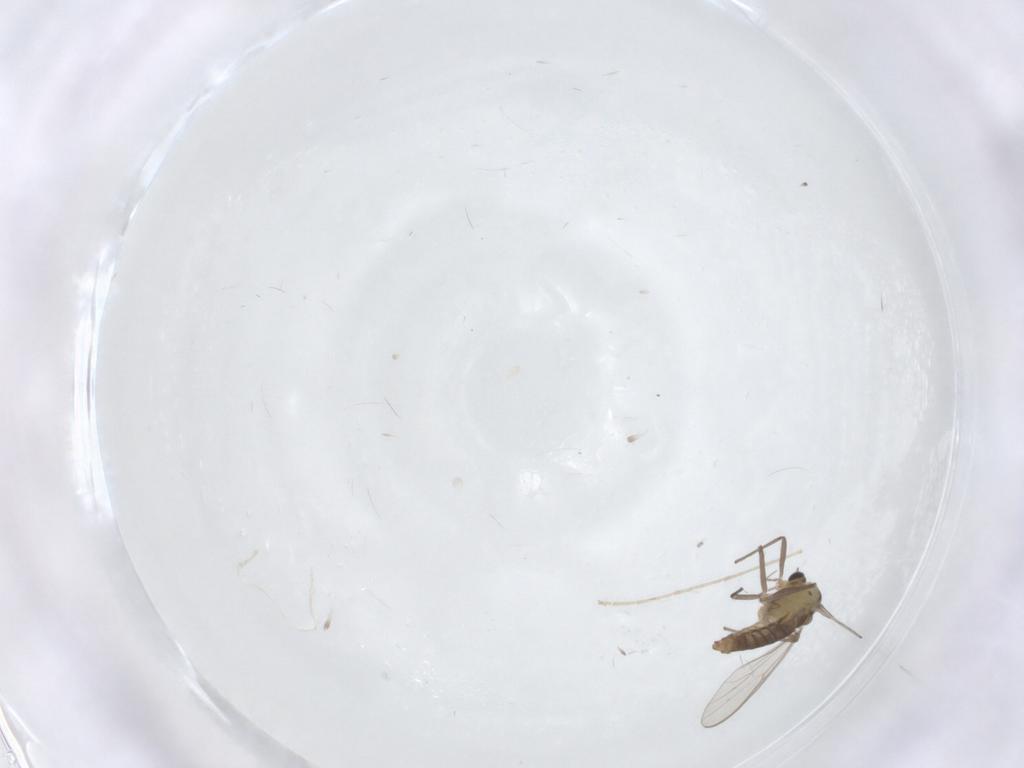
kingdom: Animalia
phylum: Arthropoda
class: Insecta
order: Diptera
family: Chironomidae
